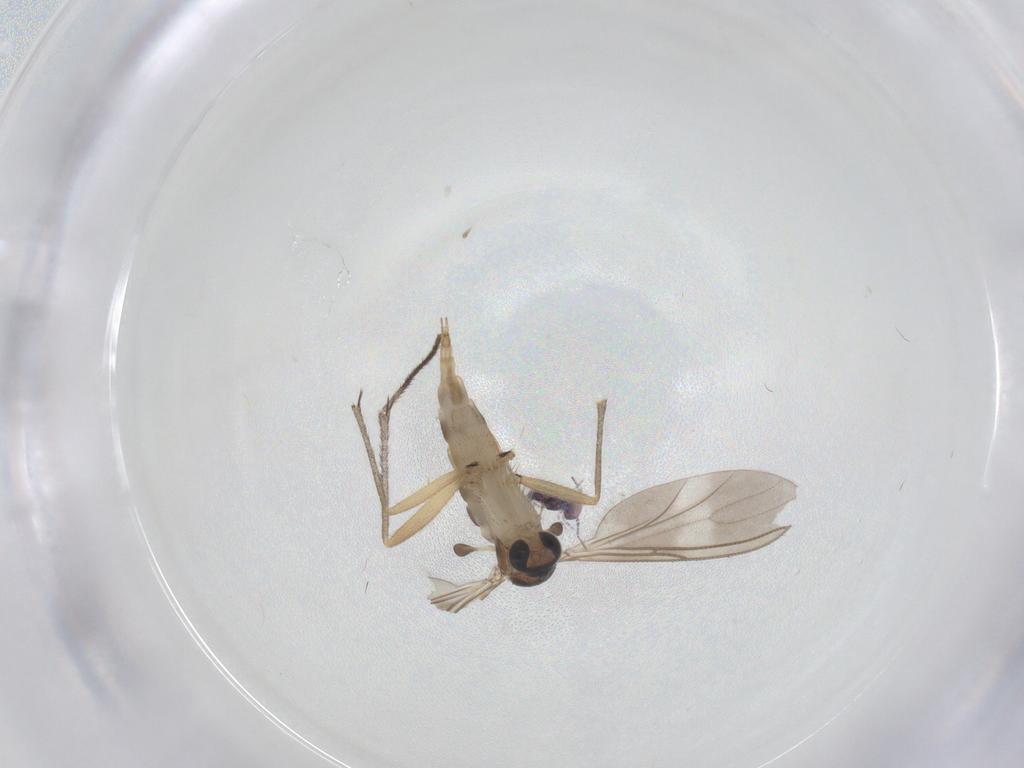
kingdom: Animalia
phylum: Arthropoda
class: Insecta
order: Diptera
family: Sciaridae
